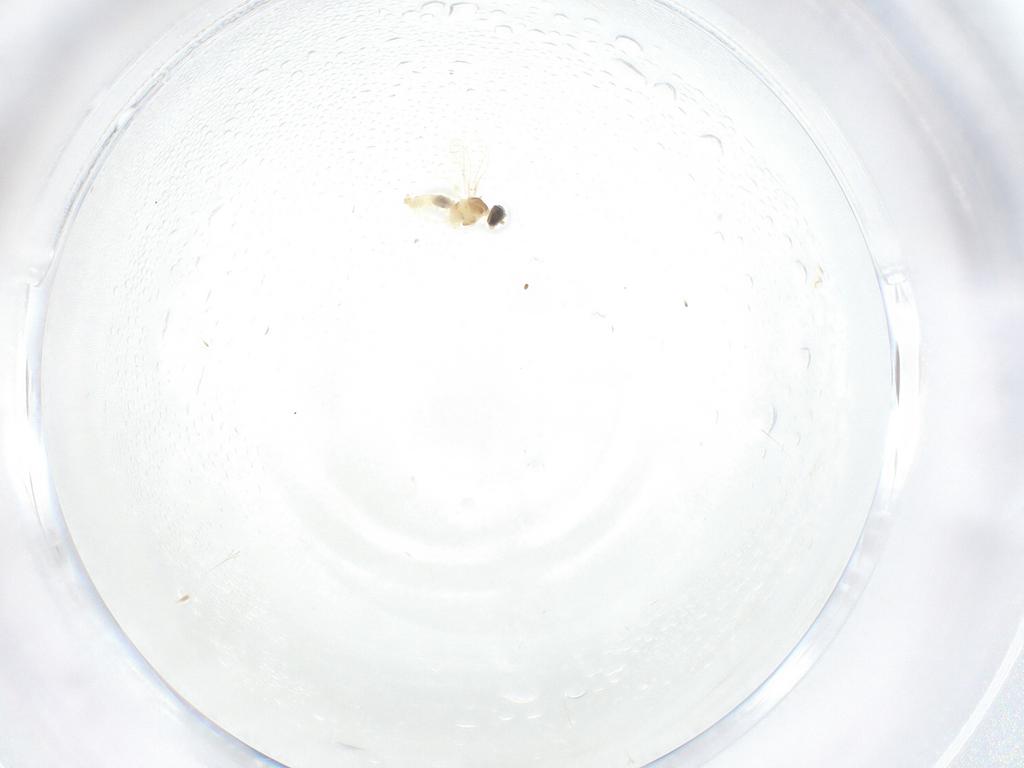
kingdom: Animalia
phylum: Arthropoda
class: Insecta
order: Diptera
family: Cecidomyiidae
